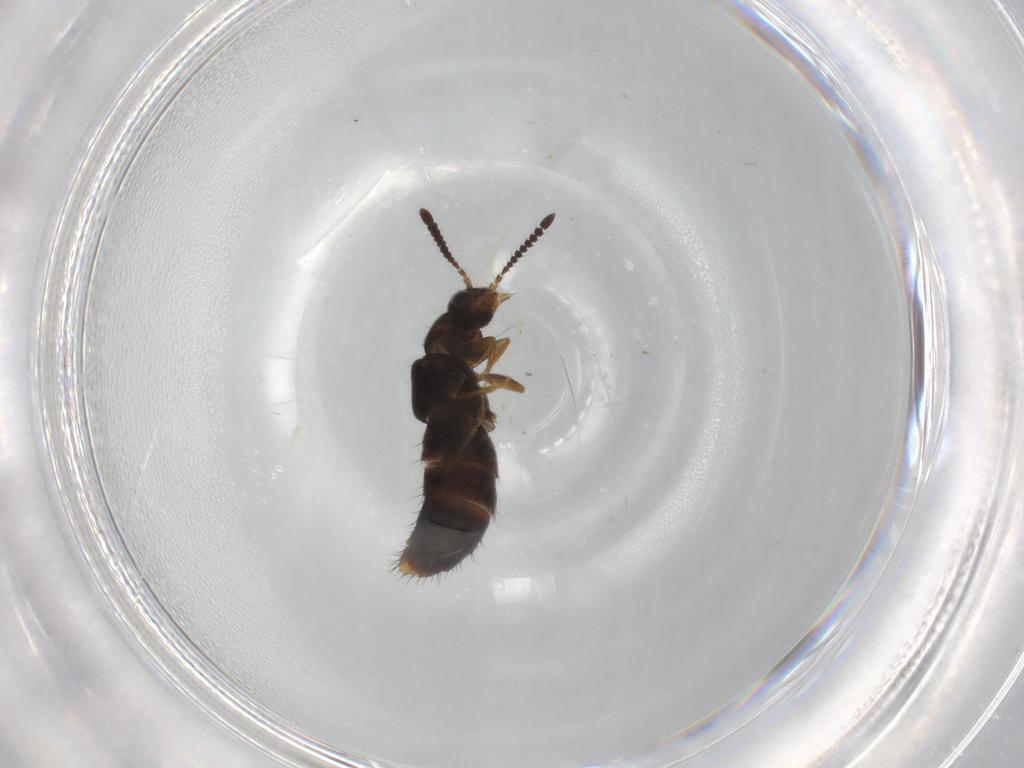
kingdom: Animalia
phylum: Arthropoda
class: Insecta
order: Coleoptera
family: Staphylinidae
